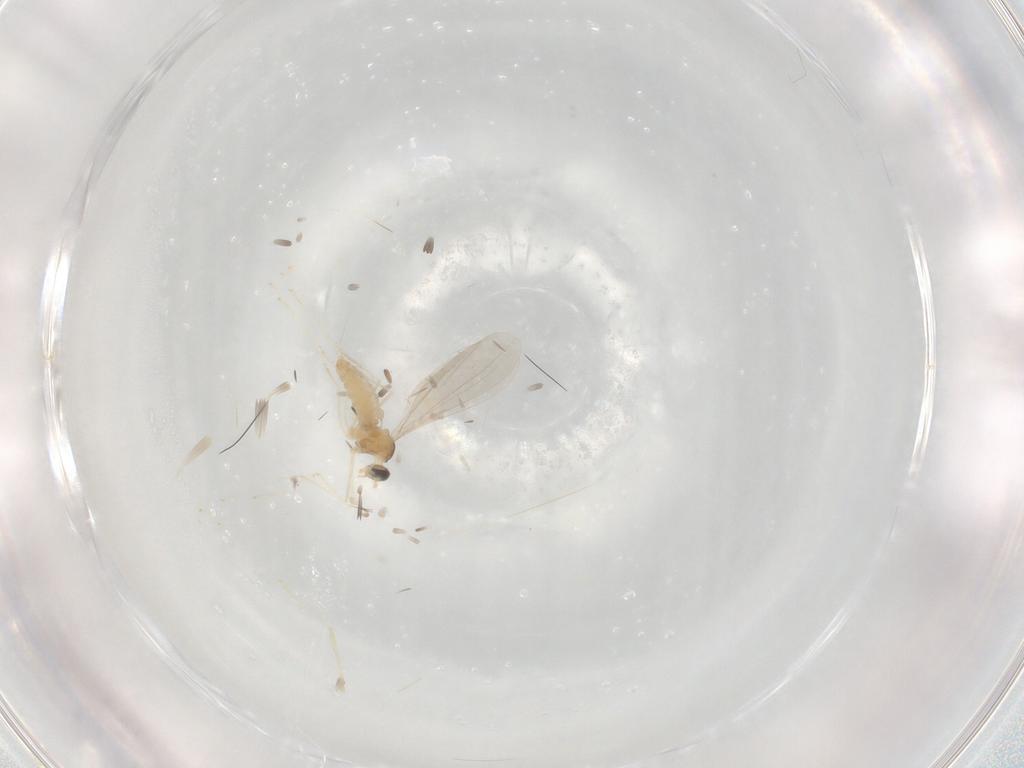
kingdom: Animalia
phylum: Arthropoda
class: Insecta
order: Diptera
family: Cecidomyiidae
